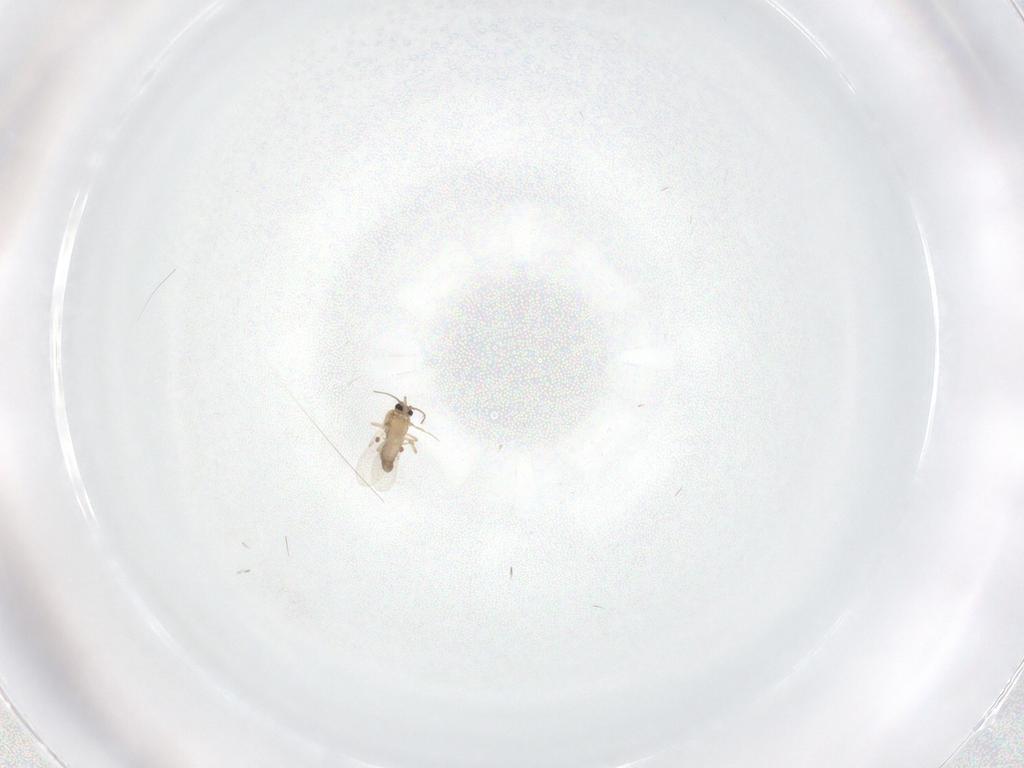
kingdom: Animalia
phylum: Arthropoda
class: Insecta
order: Diptera
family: Ceratopogonidae
